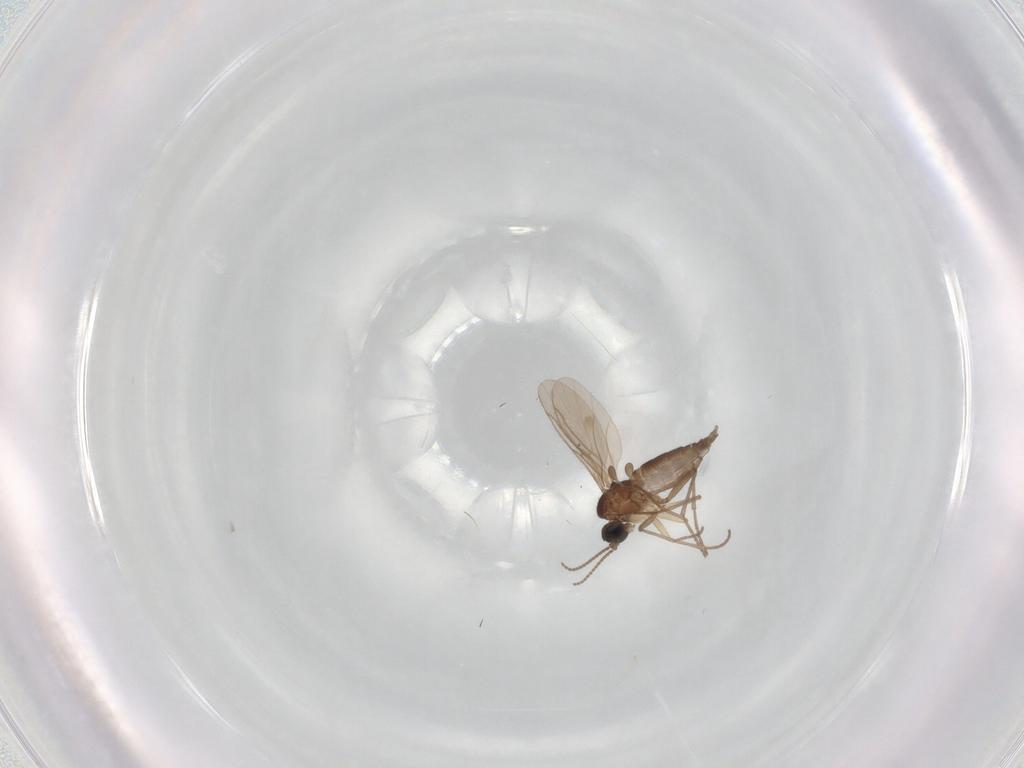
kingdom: Animalia
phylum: Arthropoda
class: Insecta
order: Diptera
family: Sciaridae
